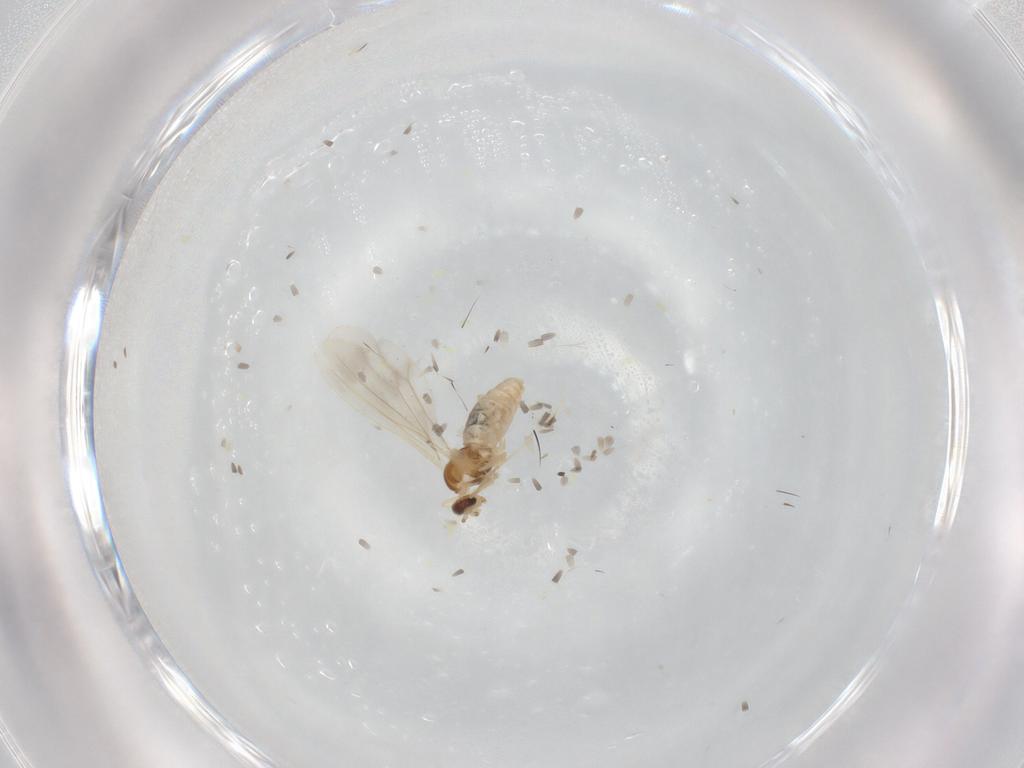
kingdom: Animalia
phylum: Arthropoda
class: Insecta
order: Diptera
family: Cecidomyiidae
